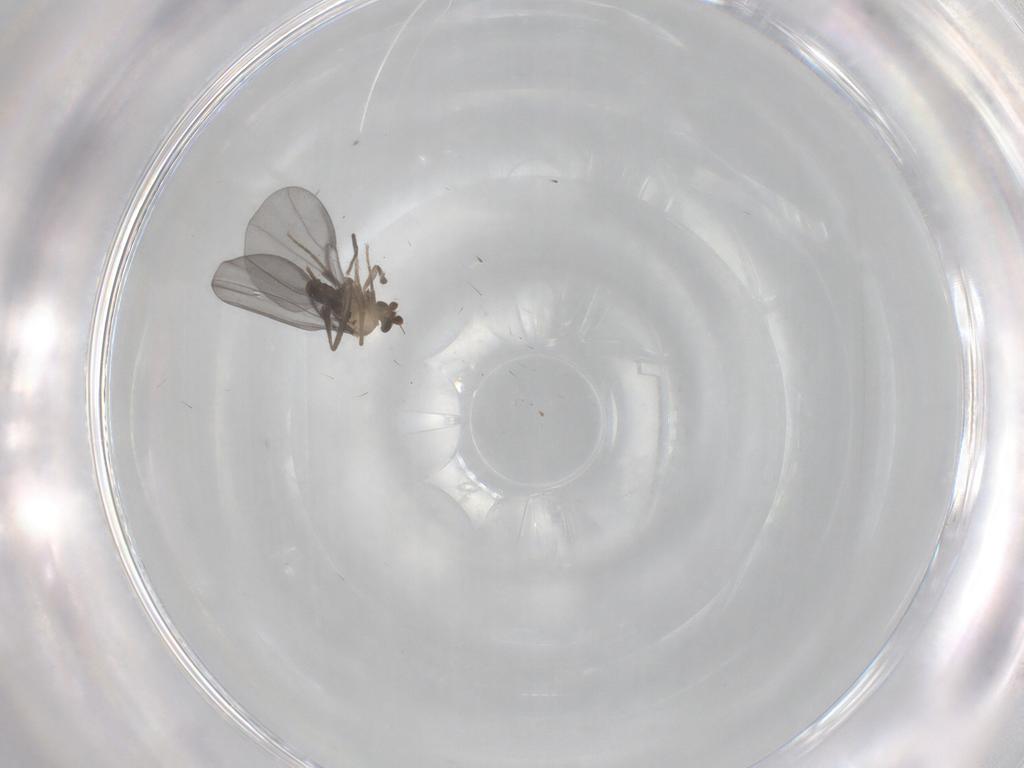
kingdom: Animalia
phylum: Arthropoda
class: Insecta
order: Diptera
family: Phoridae
